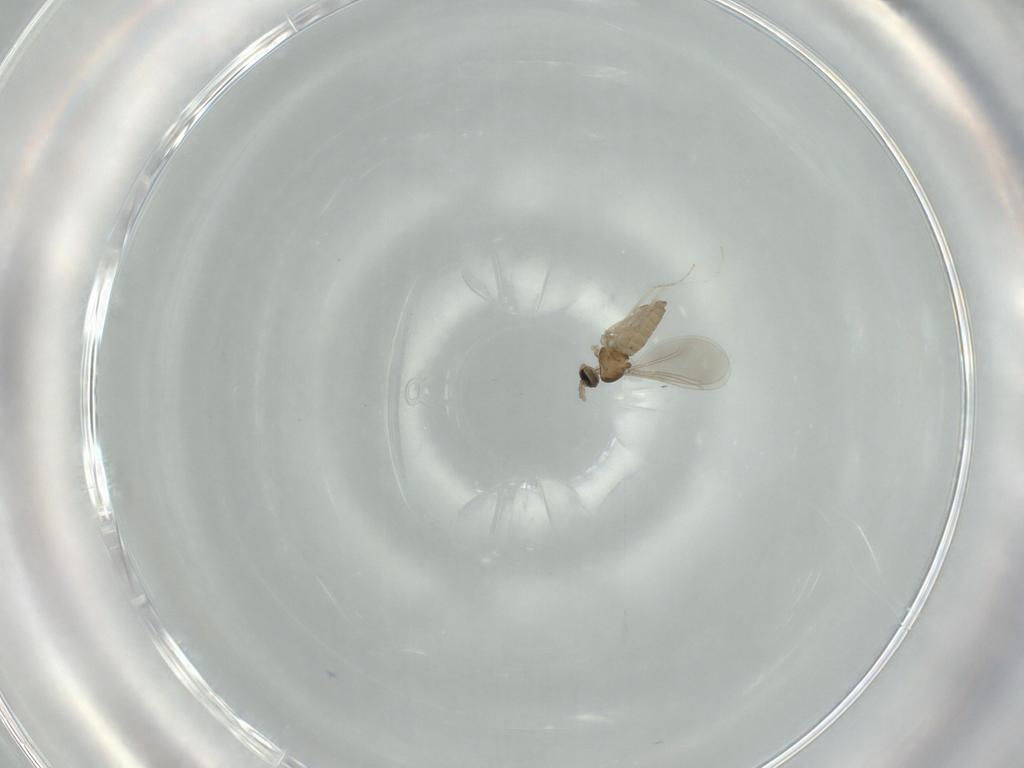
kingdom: Animalia
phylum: Arthropoda
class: Insecta
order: Diptera
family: Cecidomyiidae
